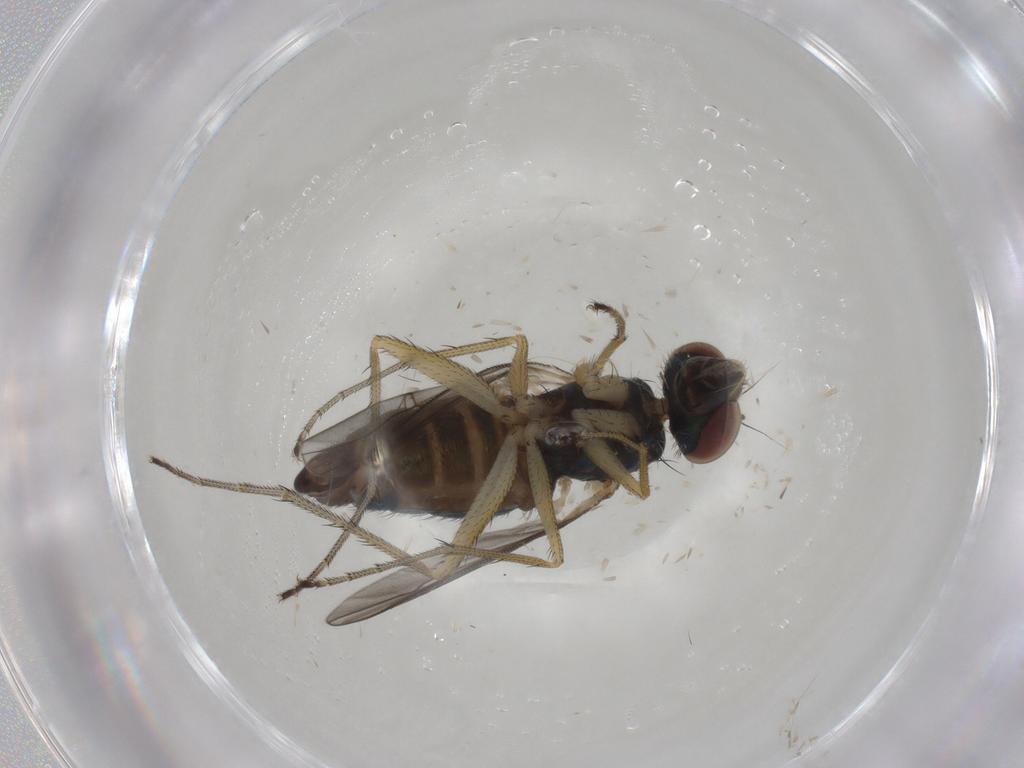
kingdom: Animalia
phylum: Arthropoda
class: Insecta
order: Diptera
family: Dolichopodidae
